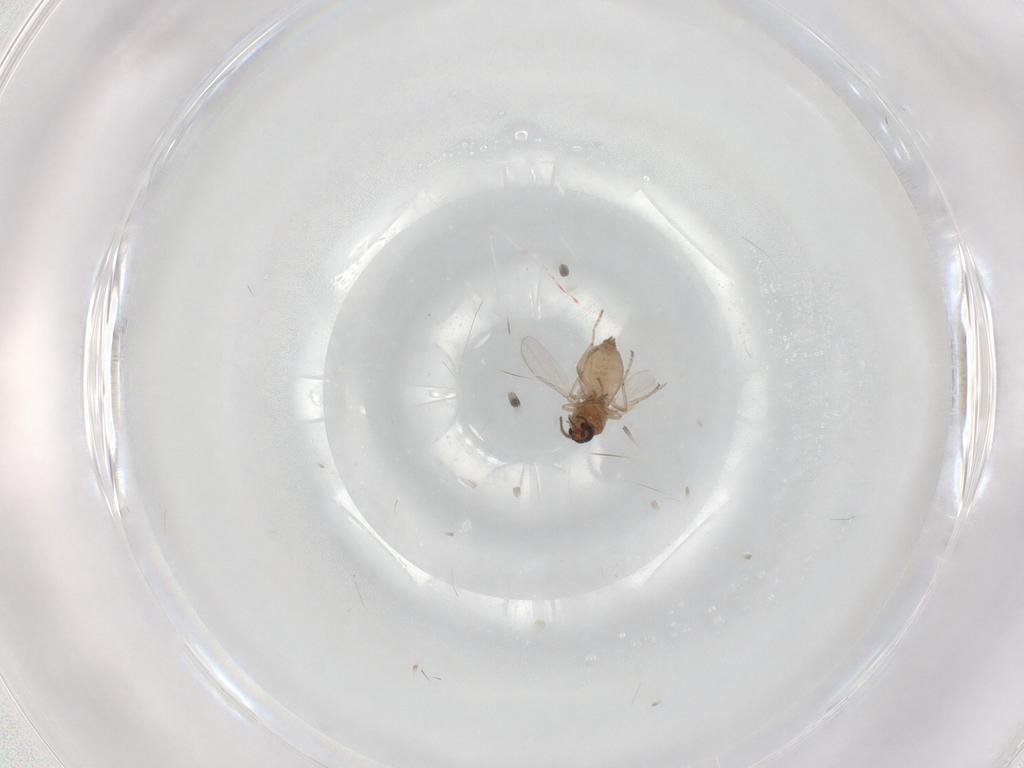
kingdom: Animalia
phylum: Arthropoda
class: Insecta
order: Diptera
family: Ceratopogonidae
